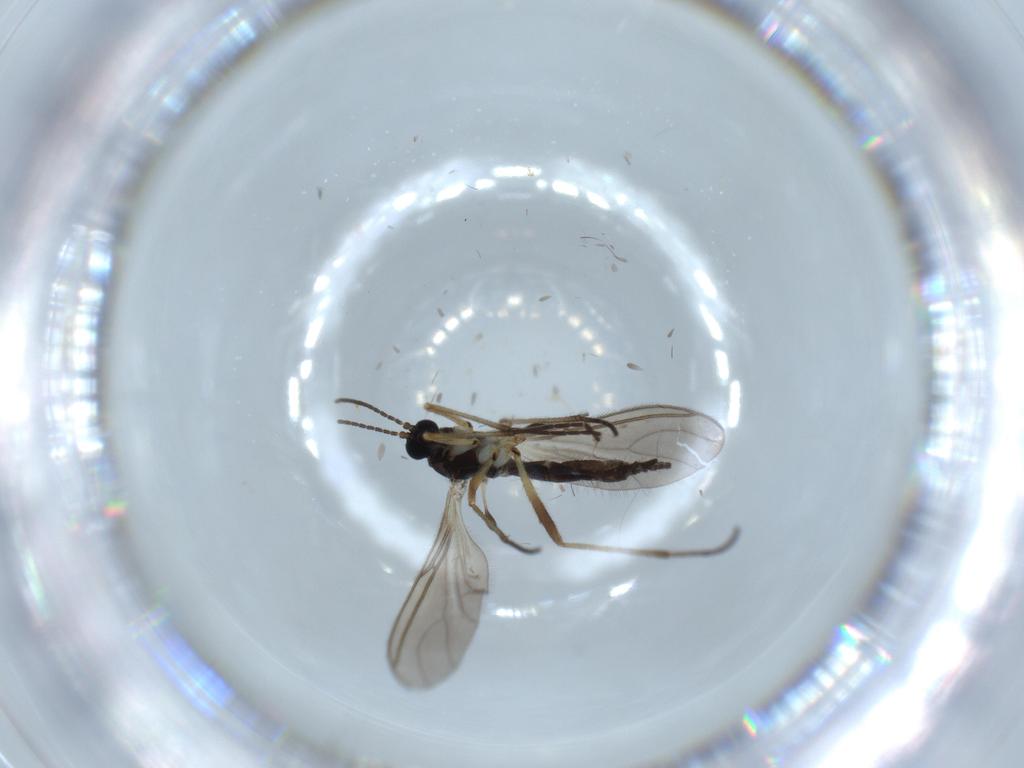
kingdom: Animalia
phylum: Arthropoda
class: Insecta
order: Diptera
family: Sciaridae
